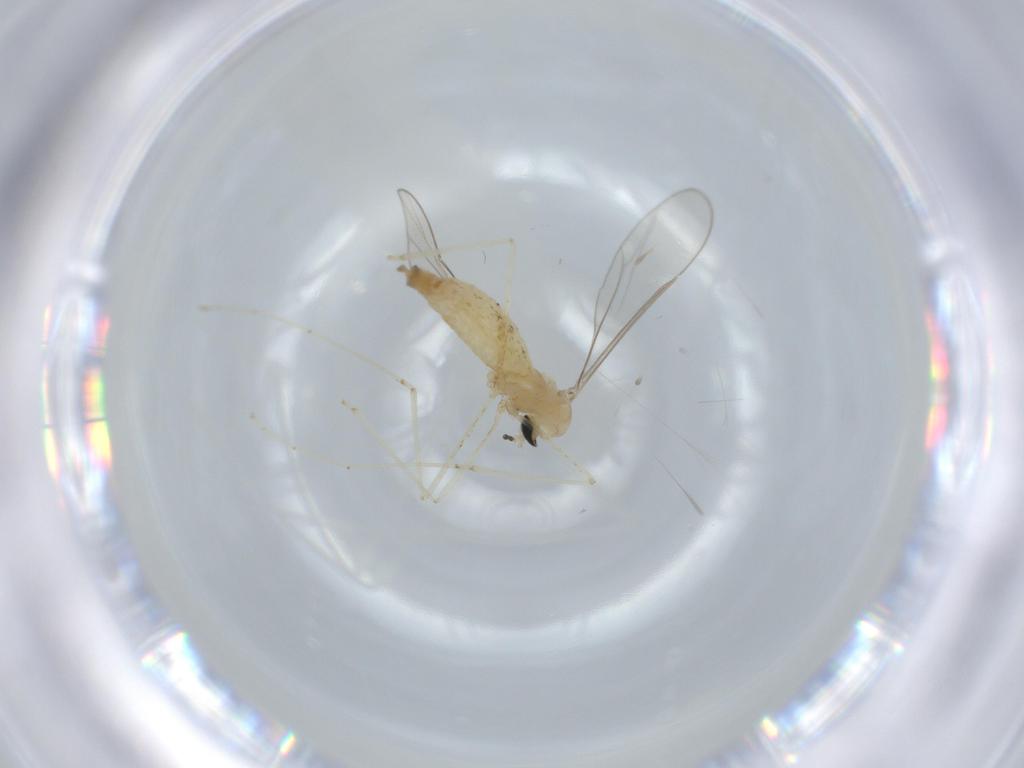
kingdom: Animalia
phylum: Arthropoda
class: Insecta
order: Diptera
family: Cecidomyiidae
